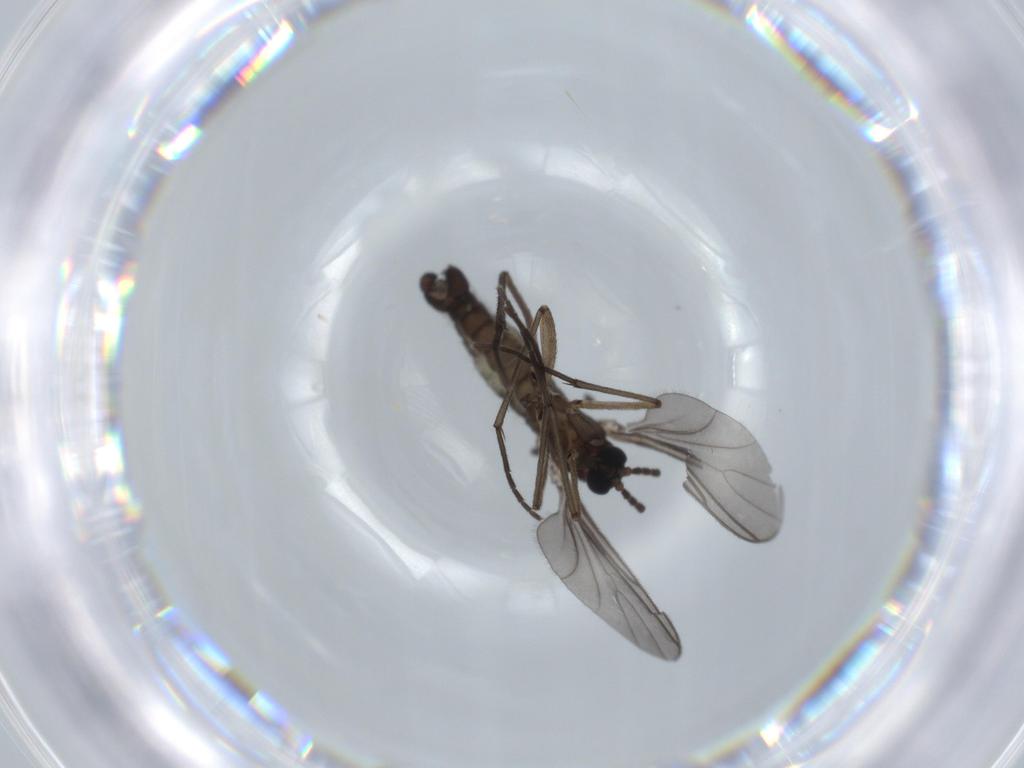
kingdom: Animalia
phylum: Arthropoda
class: Insecta
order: Diptera
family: Sciaridae
